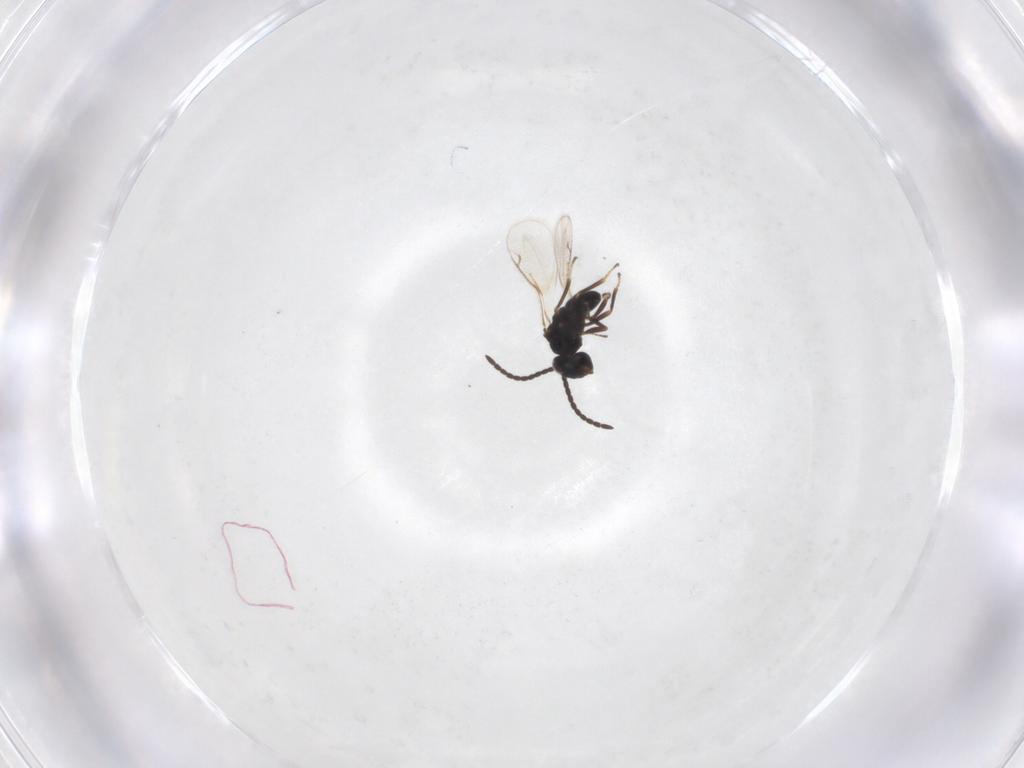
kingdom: Animalia
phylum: Arthropoda
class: Insecta
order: Hymenoptera
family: Diparidae
